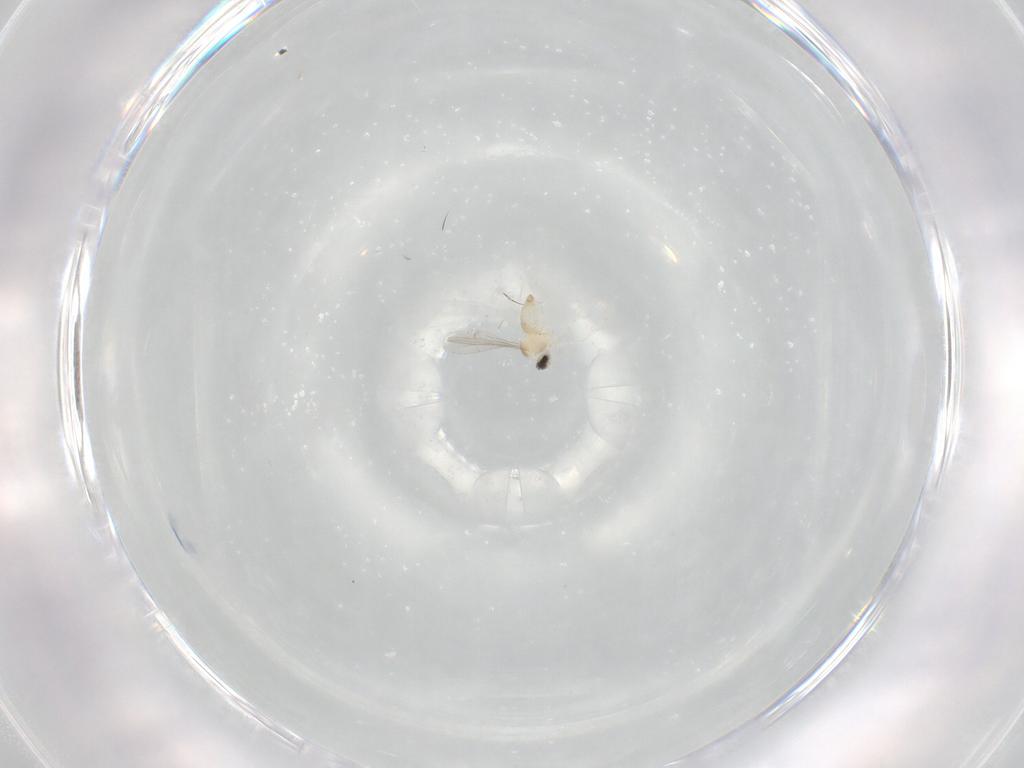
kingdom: Animalia
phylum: Arthropoda
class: Insecta
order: Diptera
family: Cecidomyiidae
